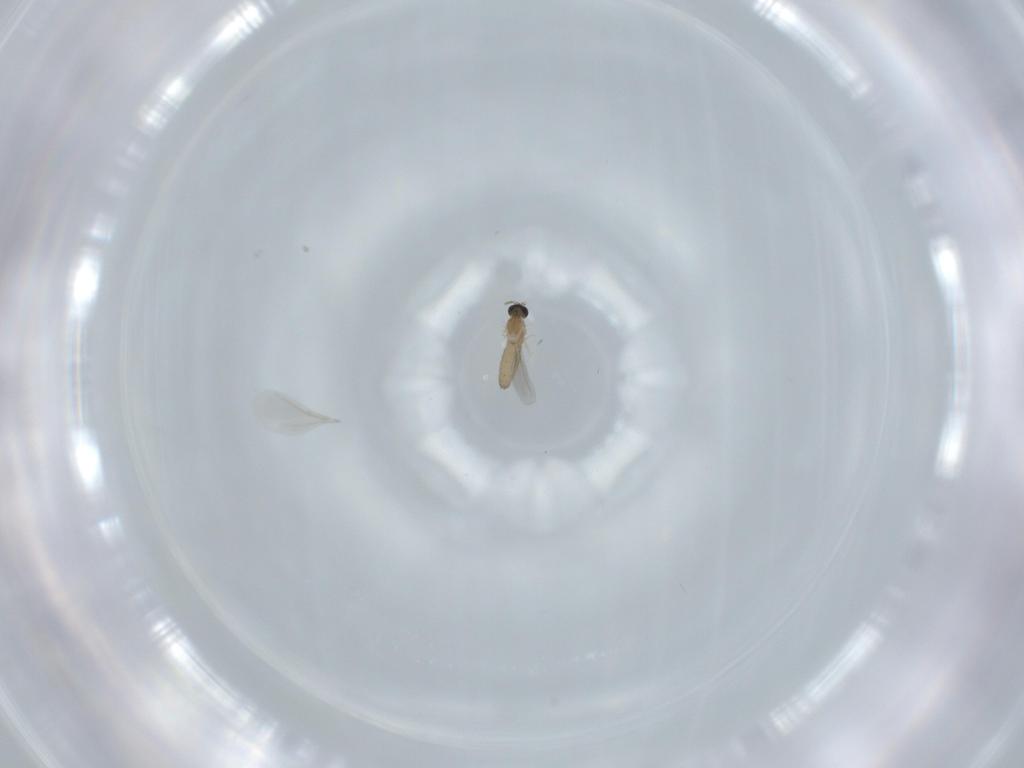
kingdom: Animalia
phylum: Arthropoda
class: Insecta
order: Diptera
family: Cecidomyiidae
